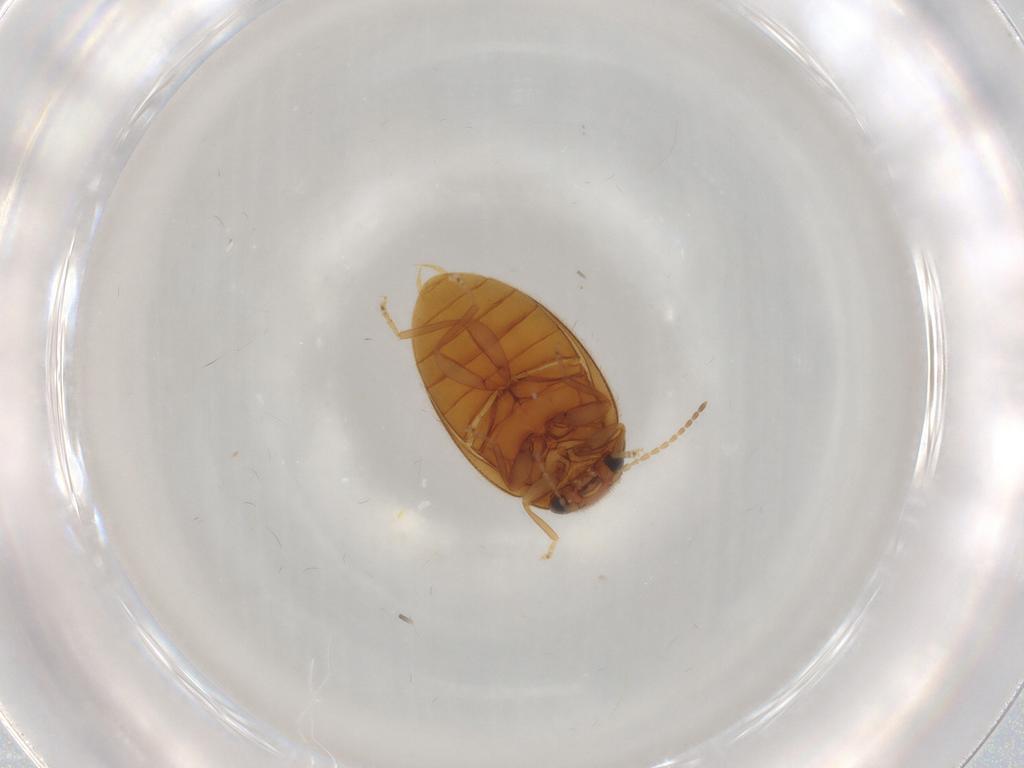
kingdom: Animalia
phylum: Arthropoda
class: Insecta
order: Coleoptera
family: Scirtidae
